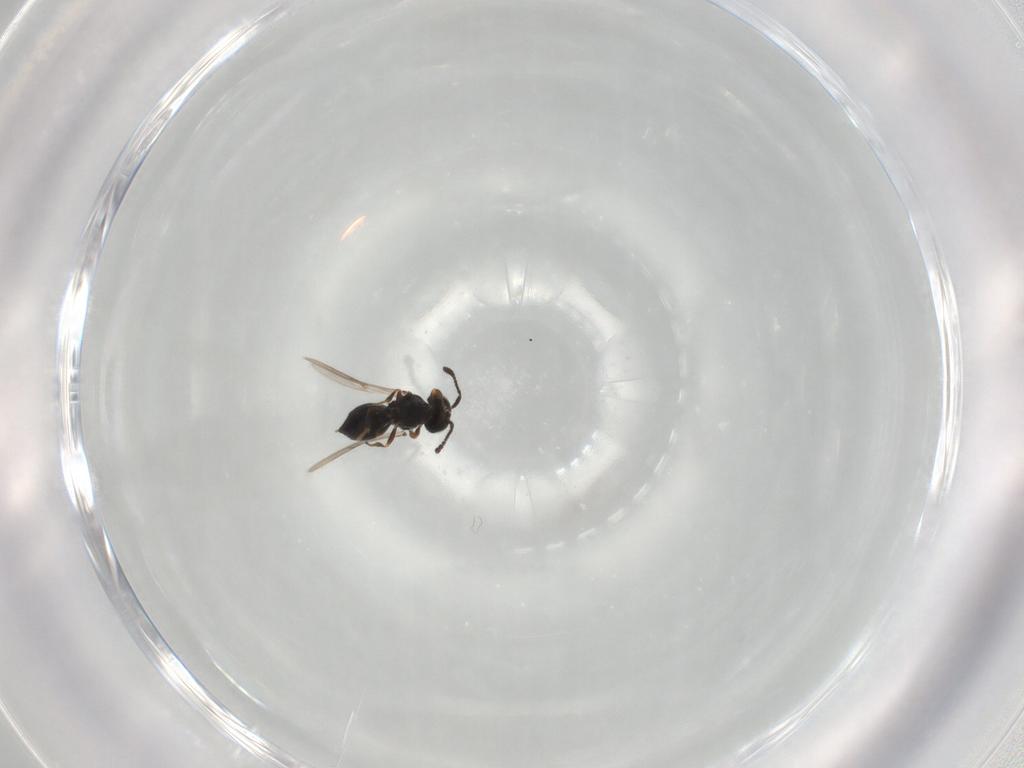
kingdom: Animalia
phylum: Arthropoda
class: Insecta
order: Hymenoptera
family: Scelionidae
